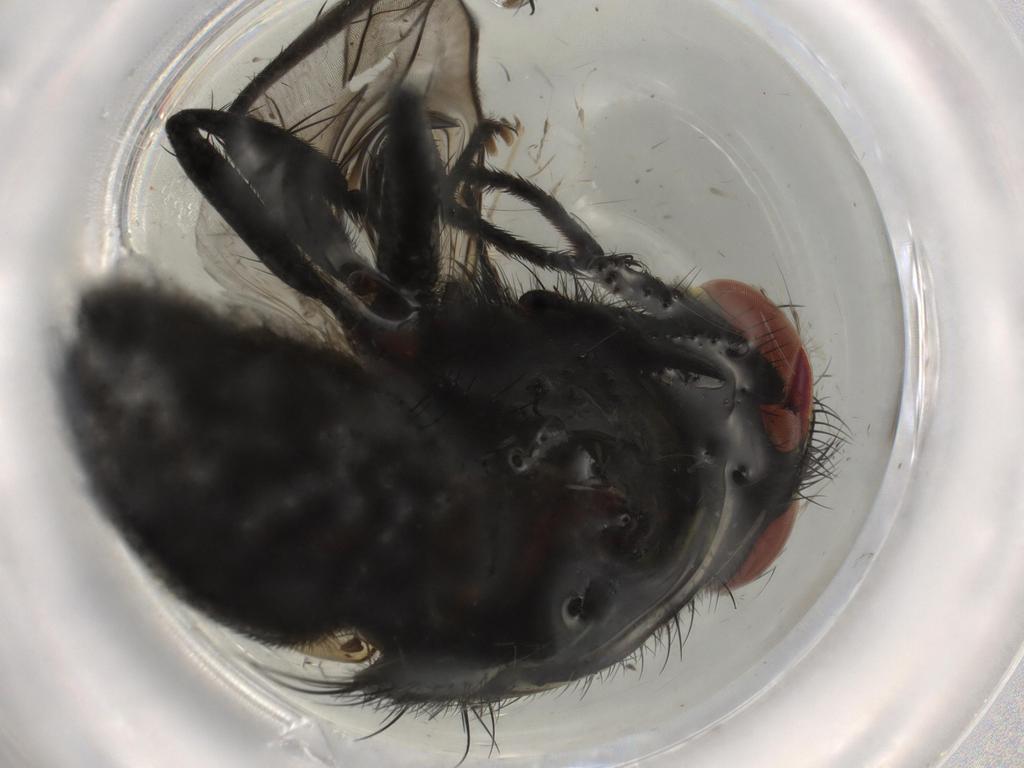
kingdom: Animalia
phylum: Arthropoda
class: Insecta
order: Diptera
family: Sarcophagidae
